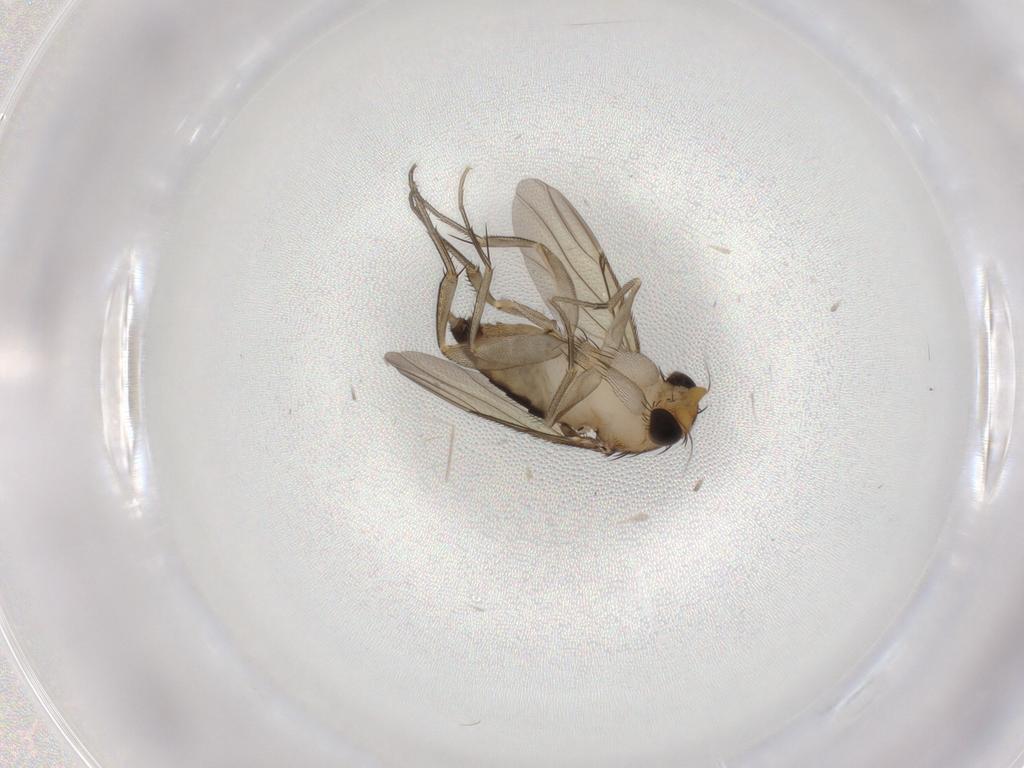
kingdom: Animalia
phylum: Arthropoda
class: Insecta
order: Diptera
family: Phoridae
